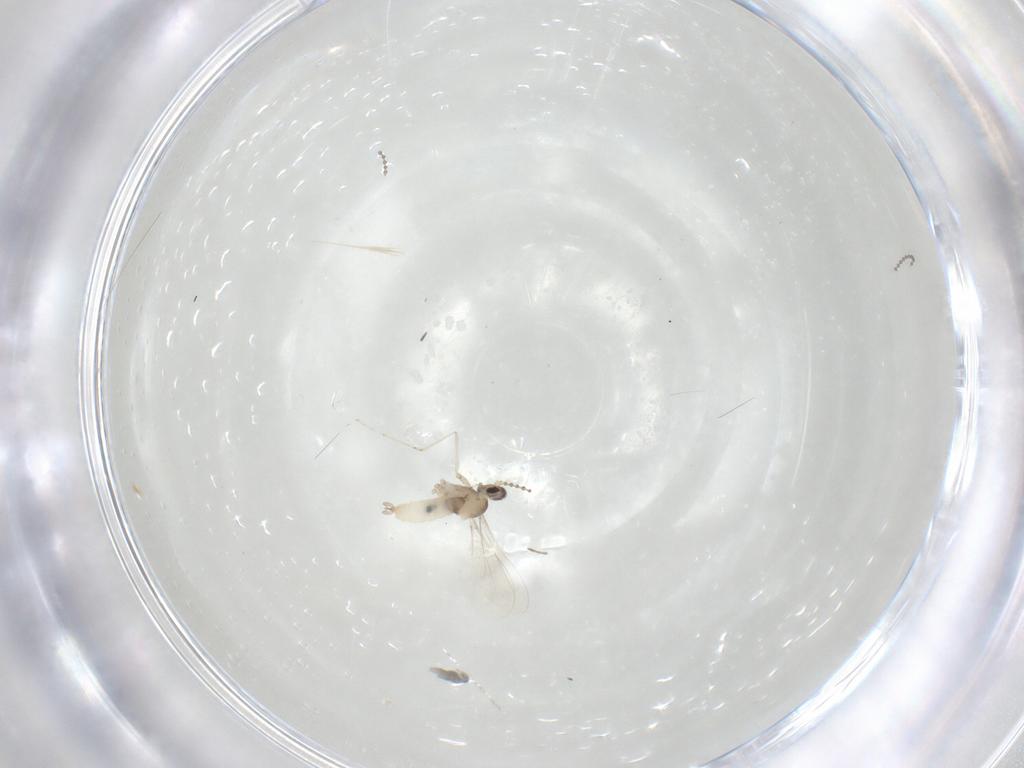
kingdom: Animalia
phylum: Arthropoda
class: Insecta
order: Diptera
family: Cecidomyiidae
